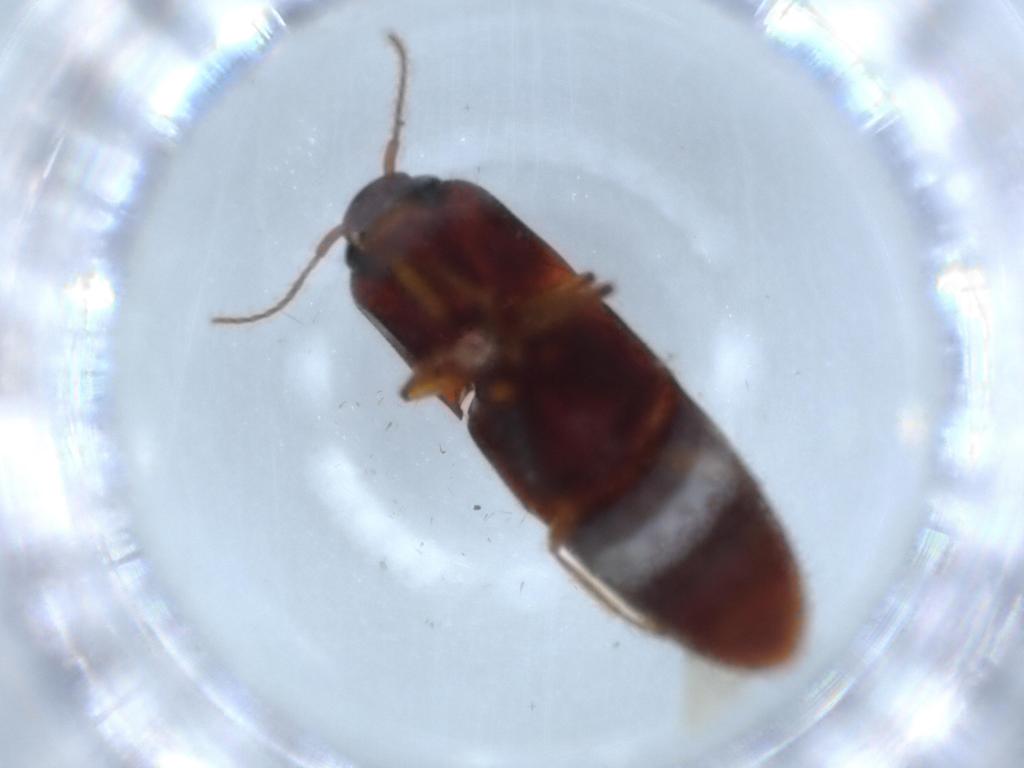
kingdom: Animalia
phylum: Arthropoda
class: Insecta
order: Coleoptera
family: Elateridae
